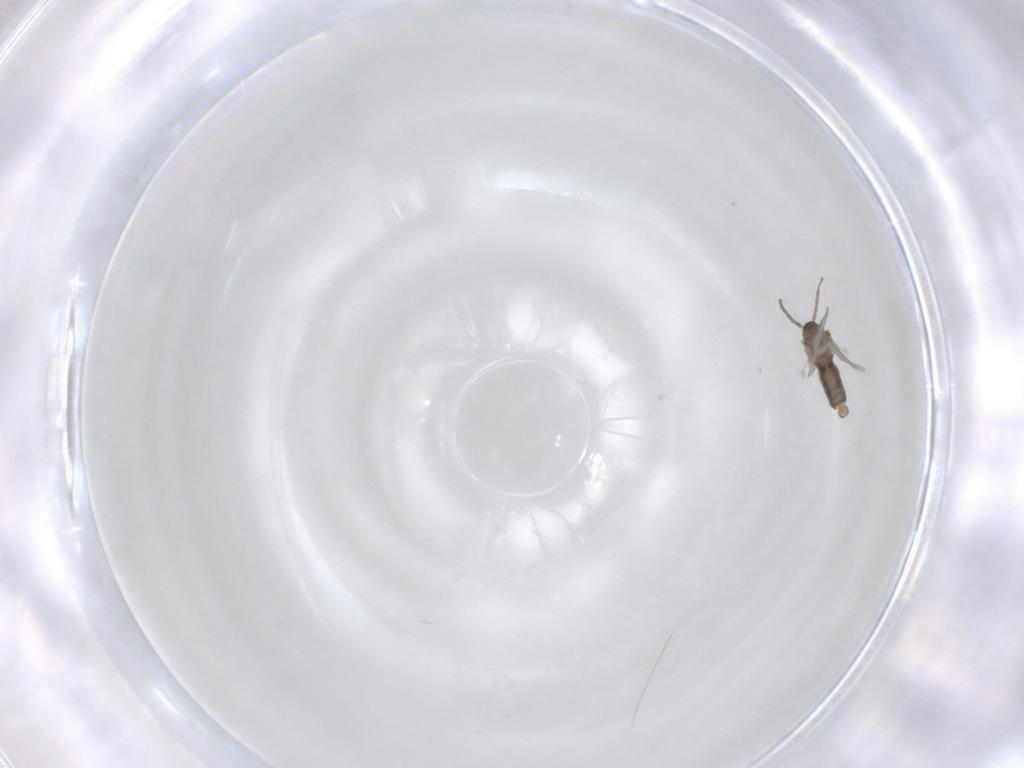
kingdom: Animalia
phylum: Arthropoda
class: Insecta
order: Diptera
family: Cecidomyiidae
